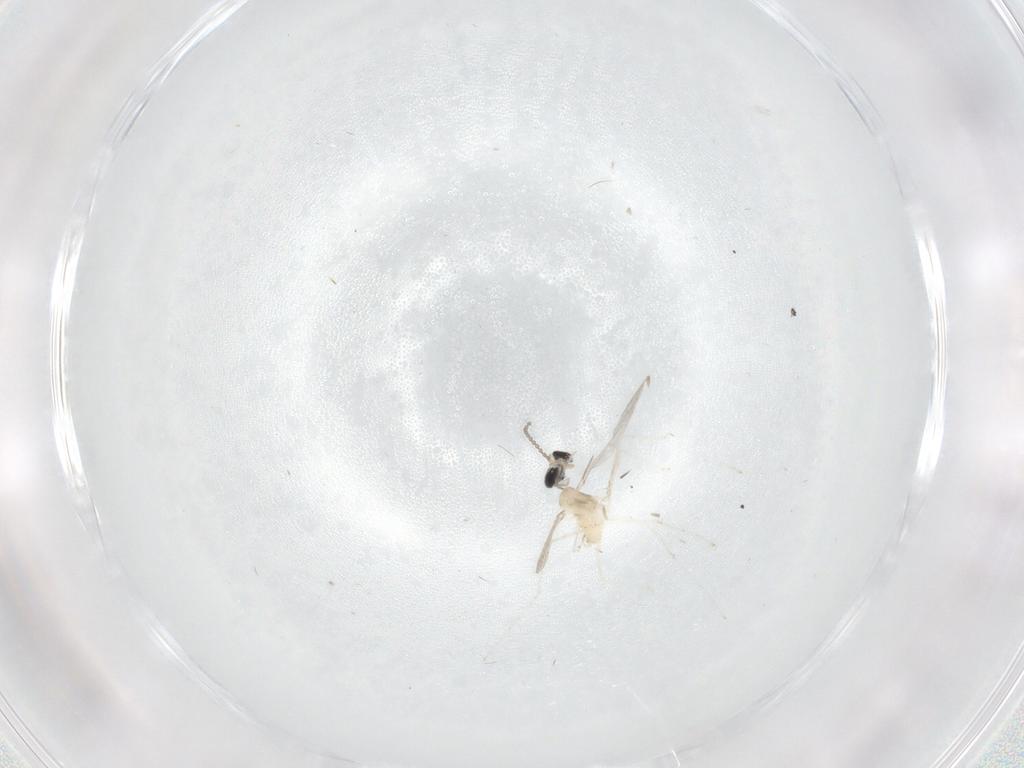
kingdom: Animalia
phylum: Arthropoda
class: Insecta
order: Diptera
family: Cecidomyiidae
